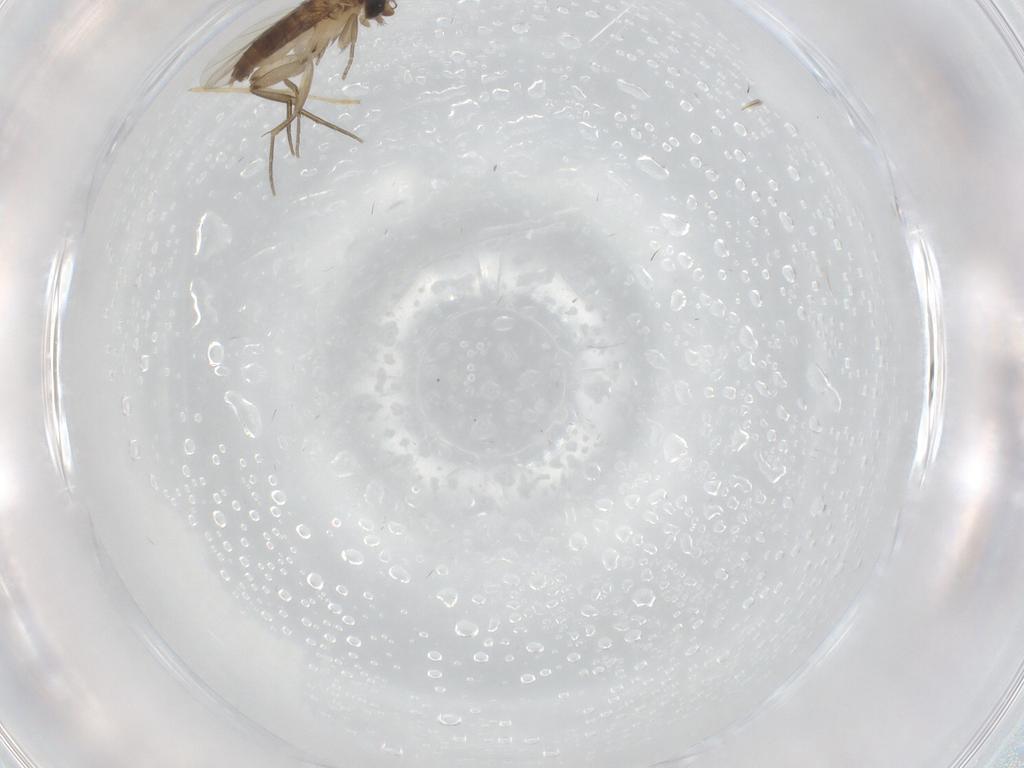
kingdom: Animalia
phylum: Arthropoda
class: Insecta
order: Diptera
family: Phoridae
